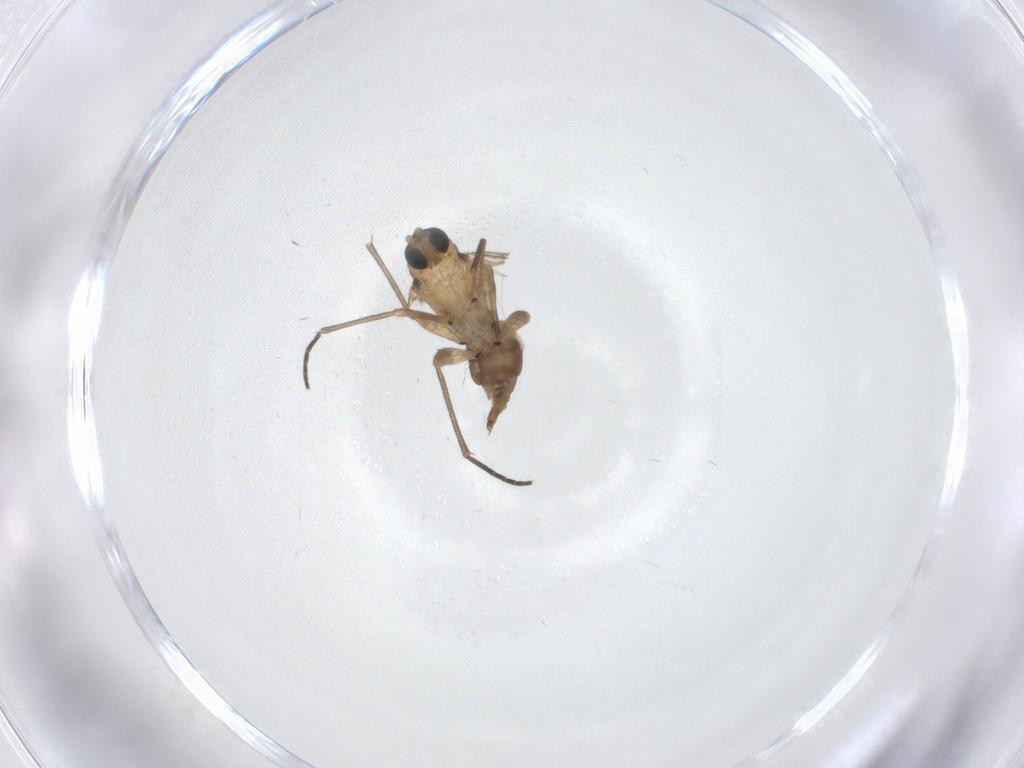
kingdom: Animalia
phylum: Arthropoda
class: Insecta
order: Diptera
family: Sciaridae
